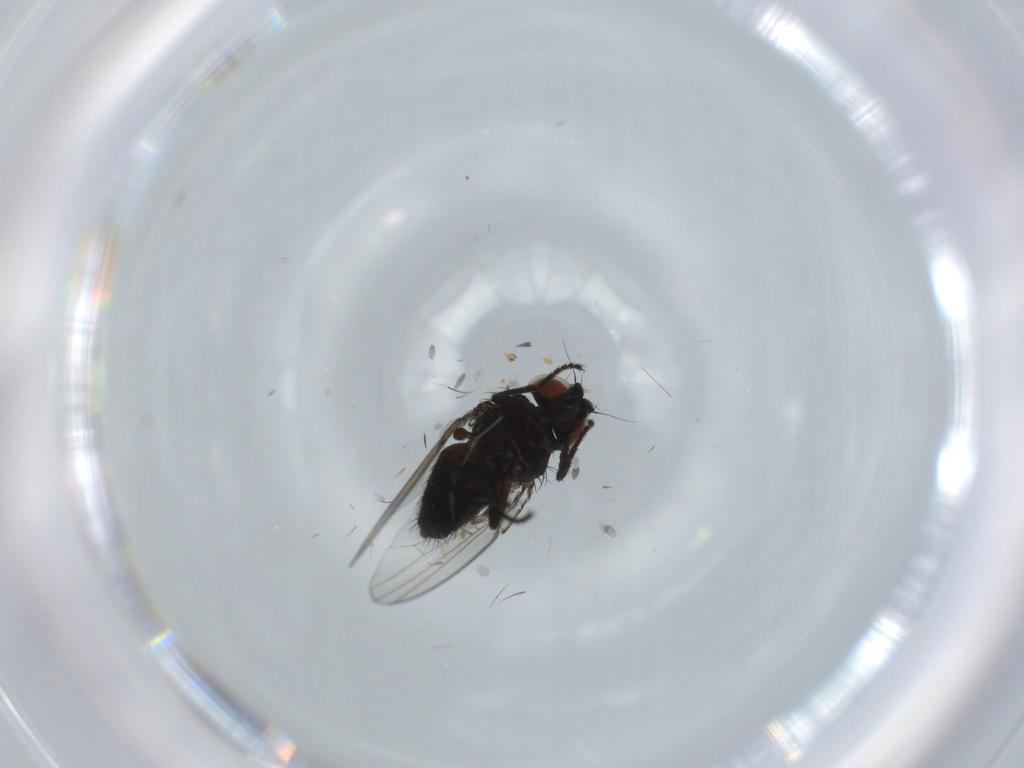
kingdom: Animalia
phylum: Arthropoda
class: Insecta
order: Diptera
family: Milichiidae
